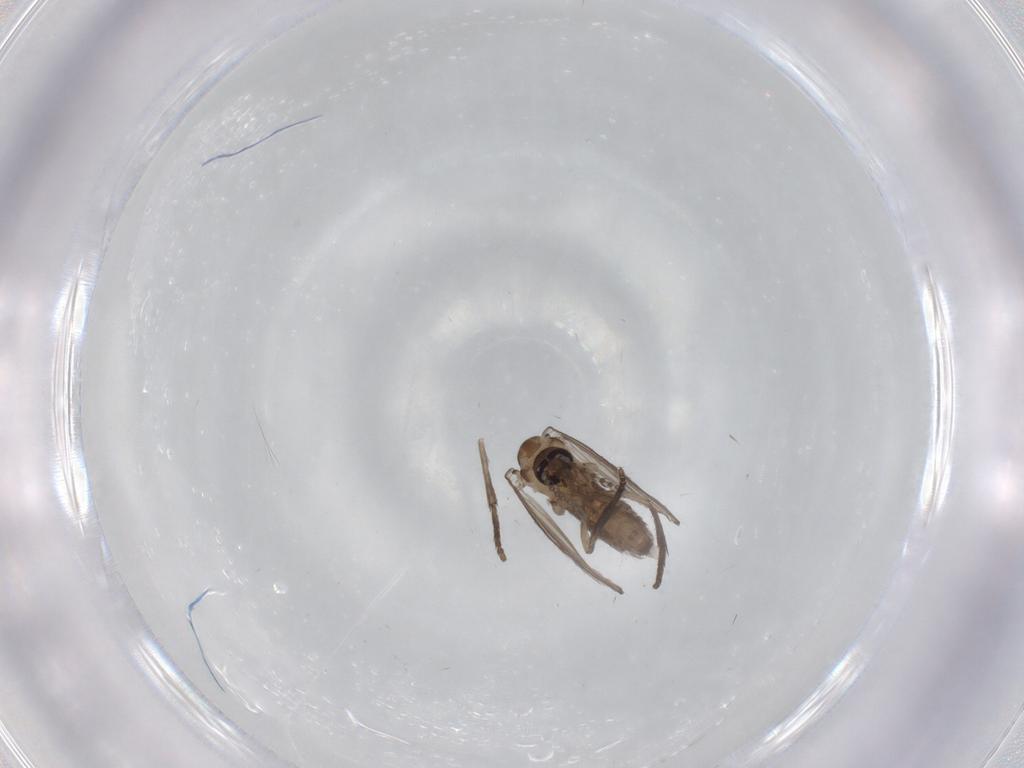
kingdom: Animalia
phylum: Arthropoda
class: Insecta
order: Diptera
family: Psychodidae
